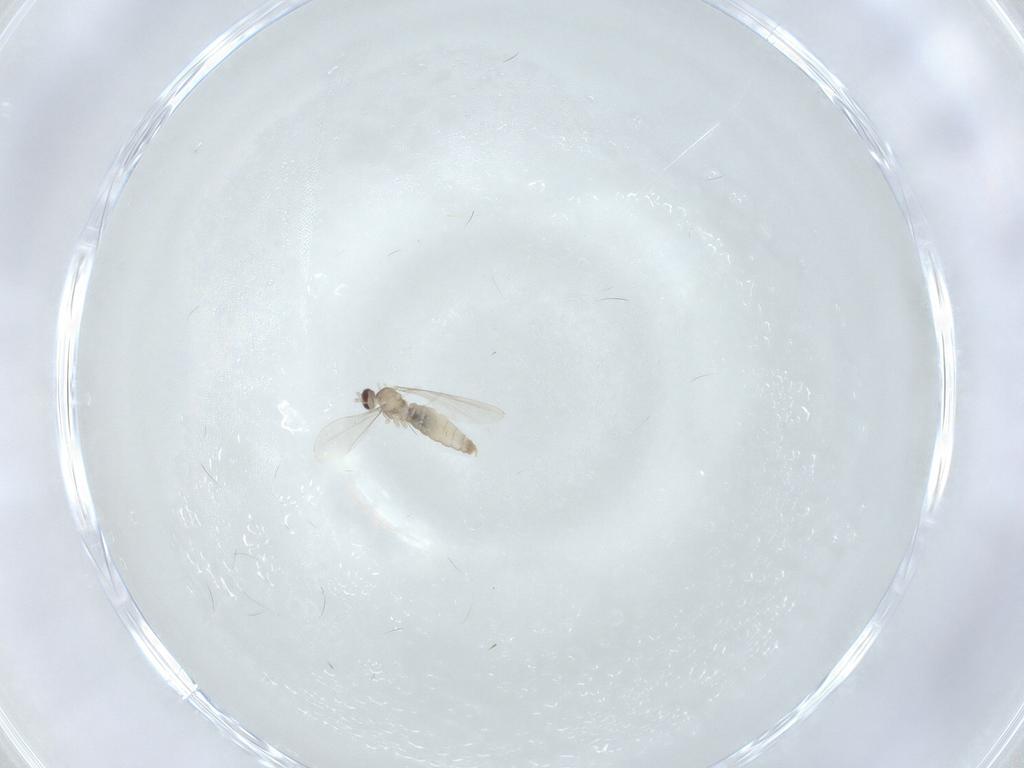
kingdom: Animalia
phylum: Arthropoda
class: Insecta
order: Diptera
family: Cecidomyiidae
